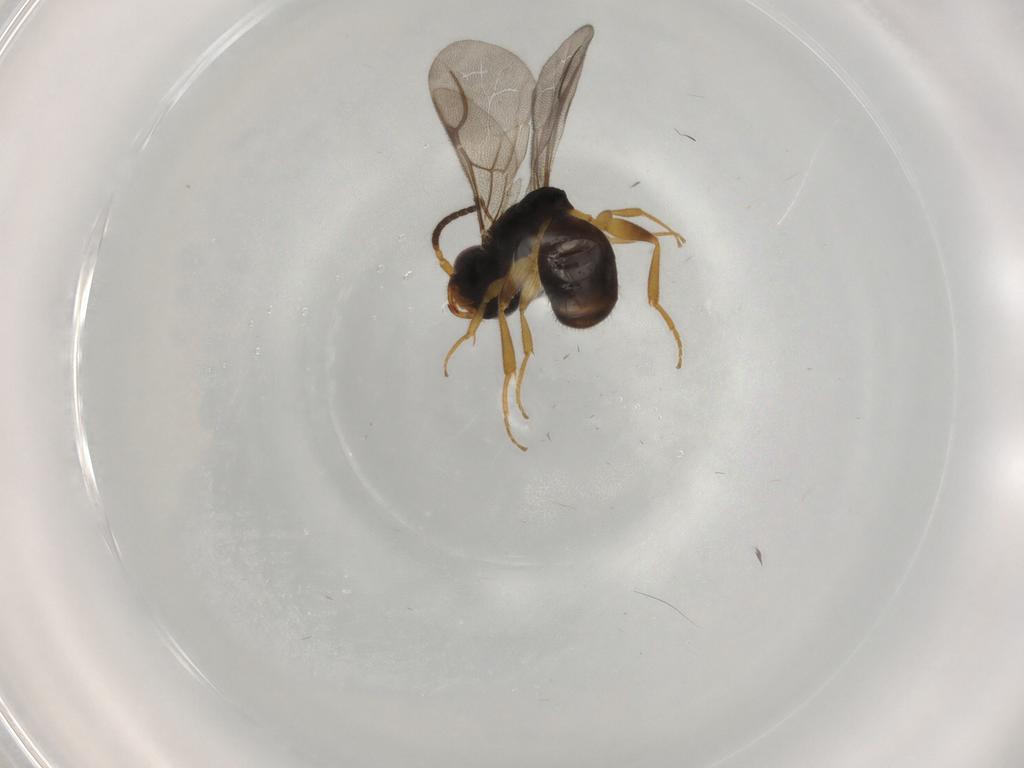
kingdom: Animalia
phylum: Arthropoda
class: Insecta
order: Hymenoptera
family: Bethylidae
